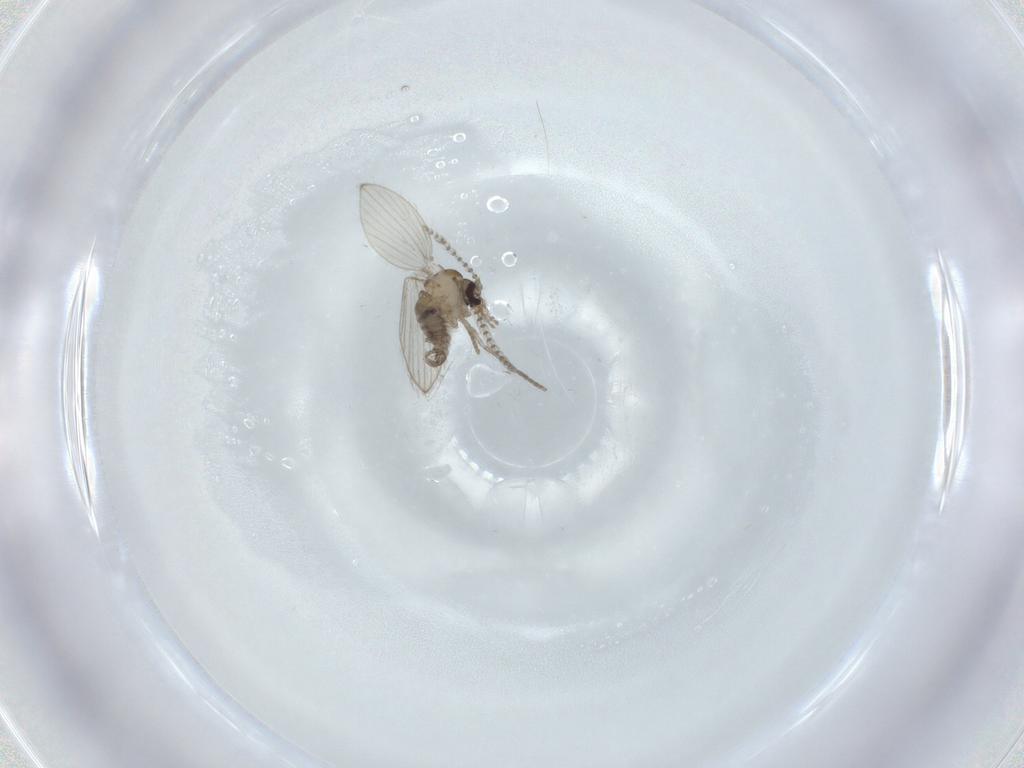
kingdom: Animalia
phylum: Arthropoda
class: Insecta
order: Diptera
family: Psychodidae
